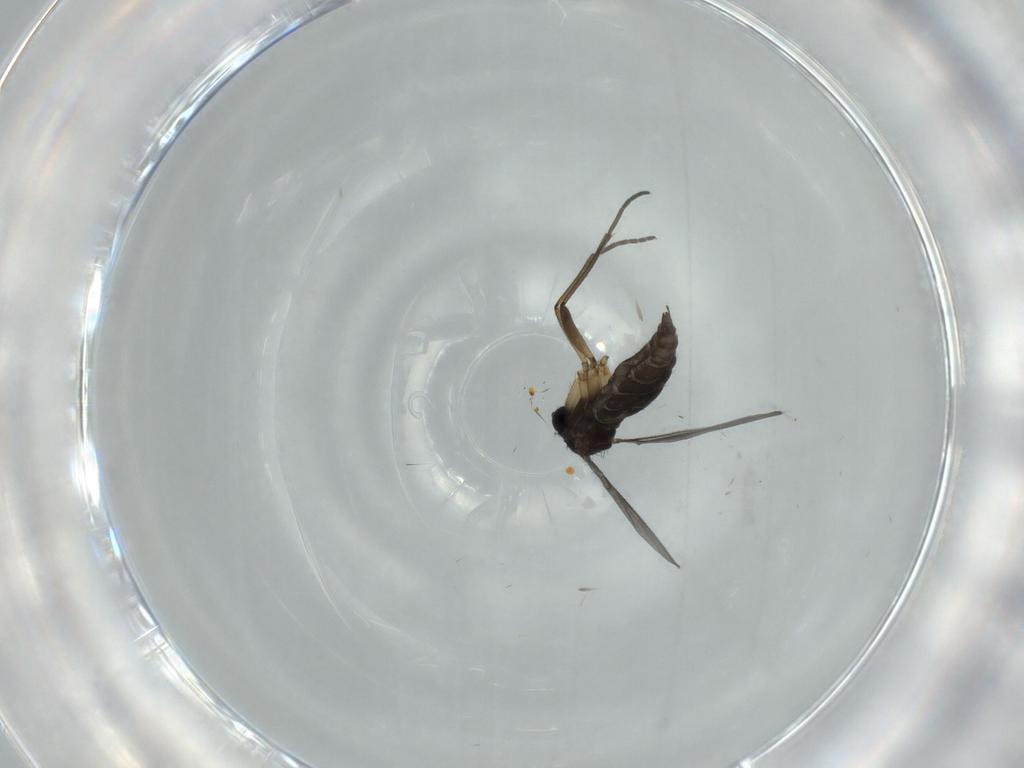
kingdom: Animalia
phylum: Arthropoda
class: Insecta
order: Diptera
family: Sciaridae
